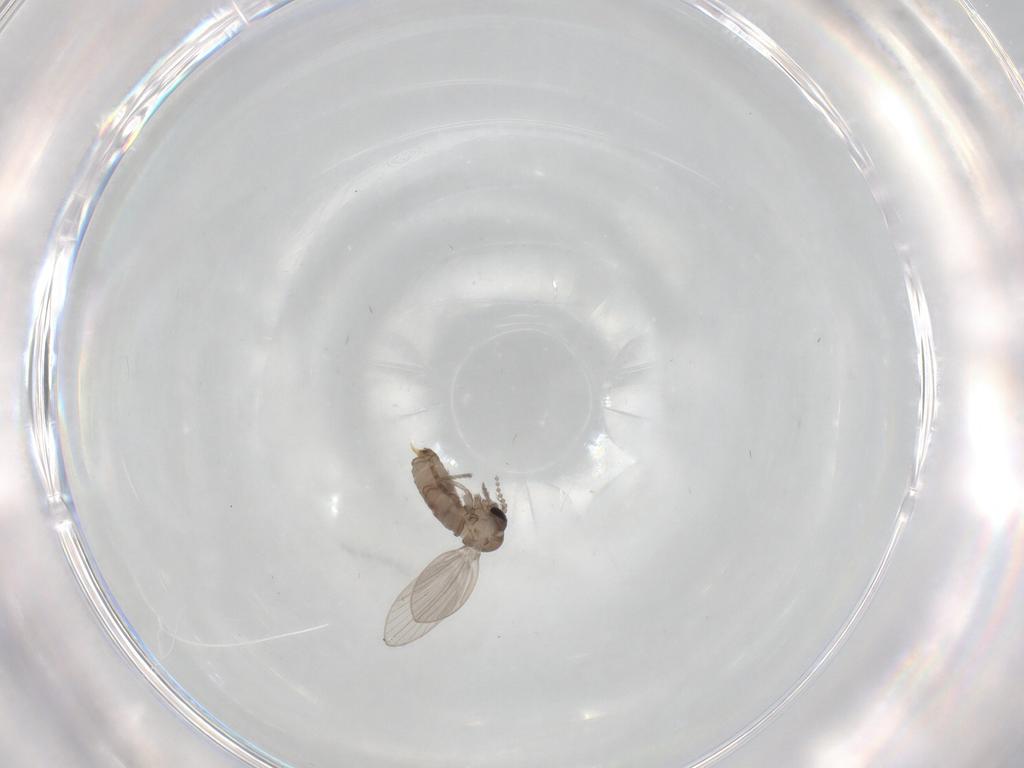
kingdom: Animalia
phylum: Arthropoda
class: Insecta
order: Diptera
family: Psychodidae
